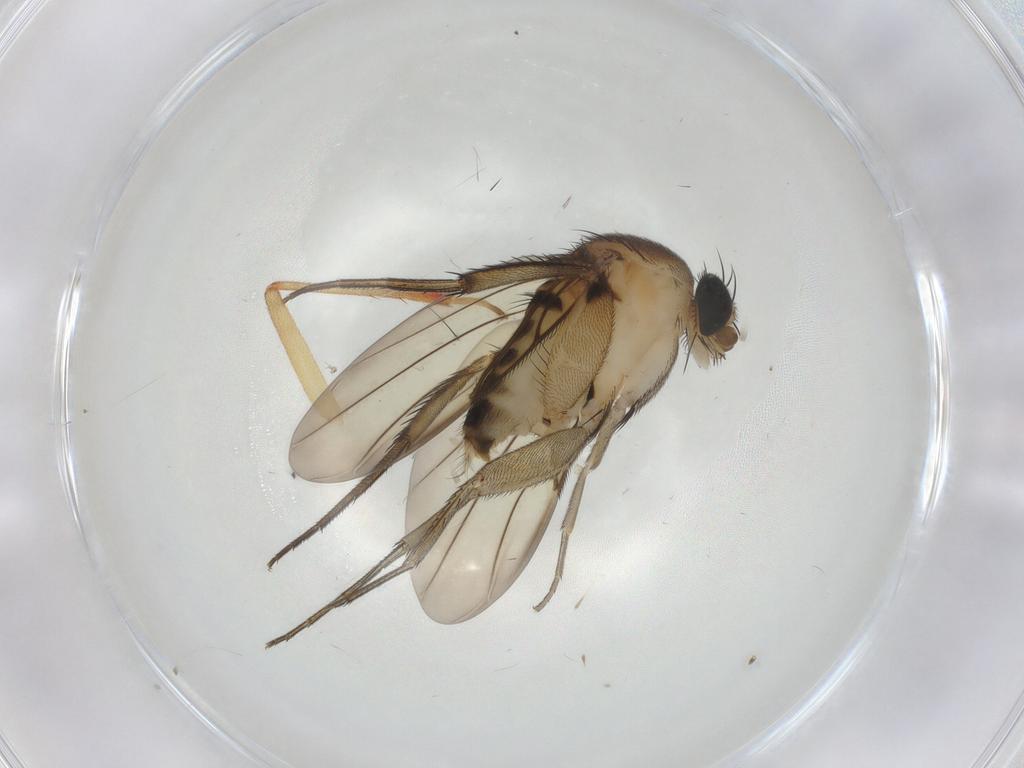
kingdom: Animalia
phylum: Arthropoda
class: Insecta
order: Diptera
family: Phoridae
